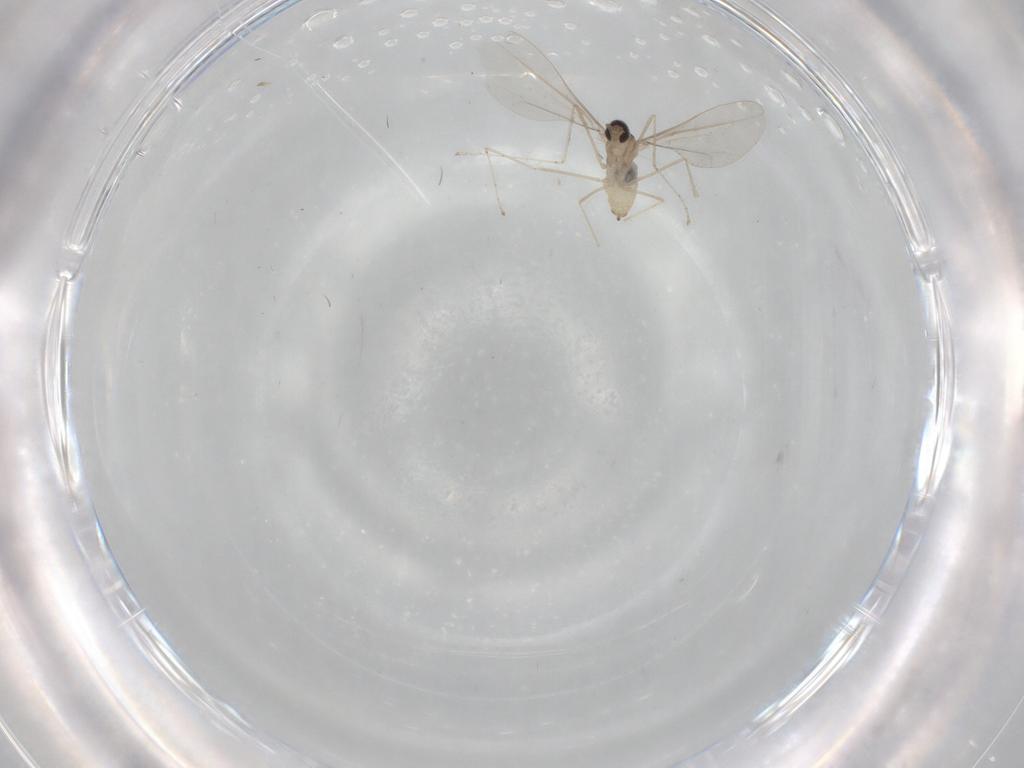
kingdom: Animalia
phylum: Arthropoda
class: Insecta
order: Diptera
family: Cecidomyiidae
